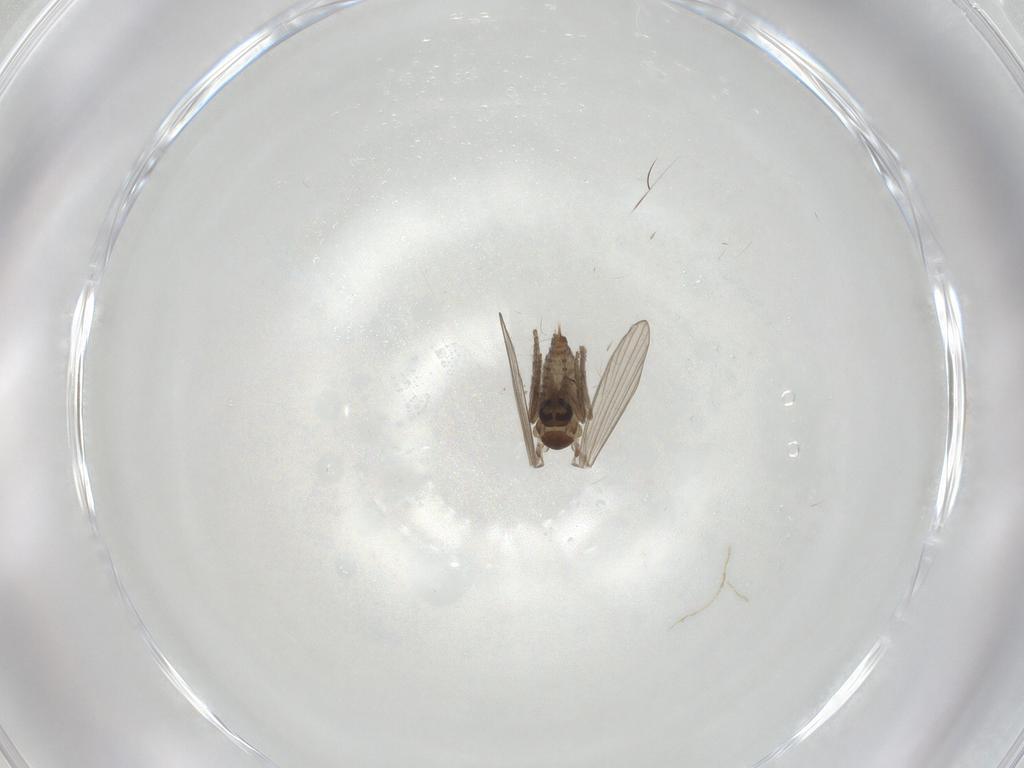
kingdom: Animalia
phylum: Arthropoda
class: Insecta
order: Diptera
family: Psychodidae
